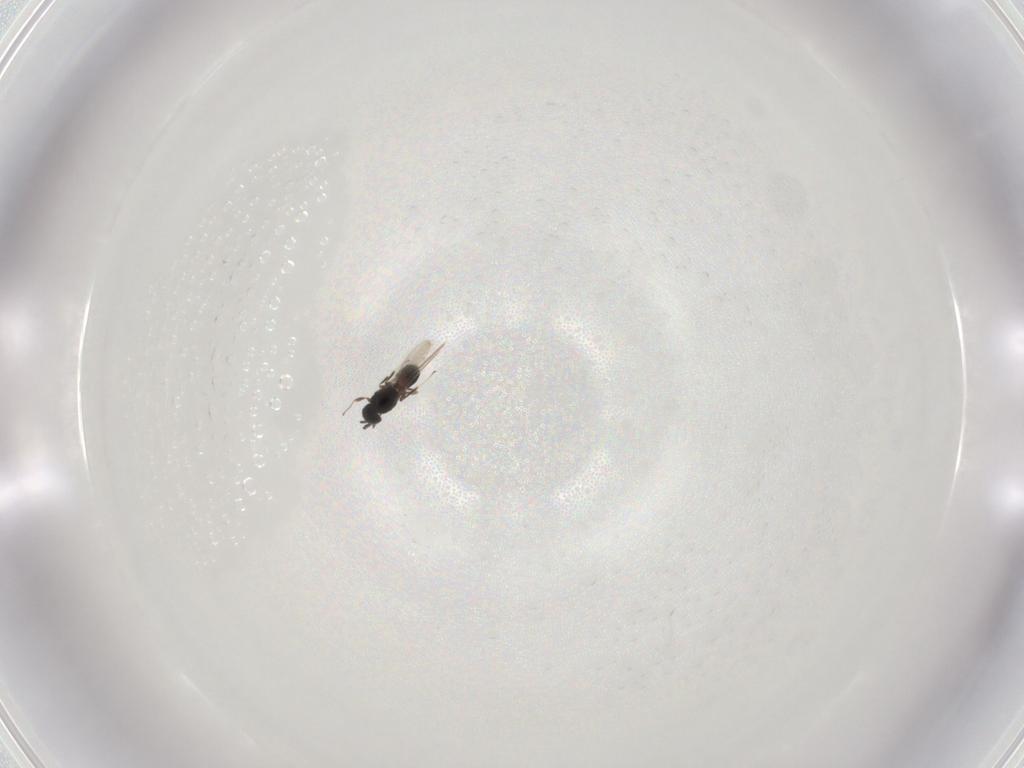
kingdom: Animalia
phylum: Arthropoda
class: Insecta
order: Hymenoptera
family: Scelionidae
